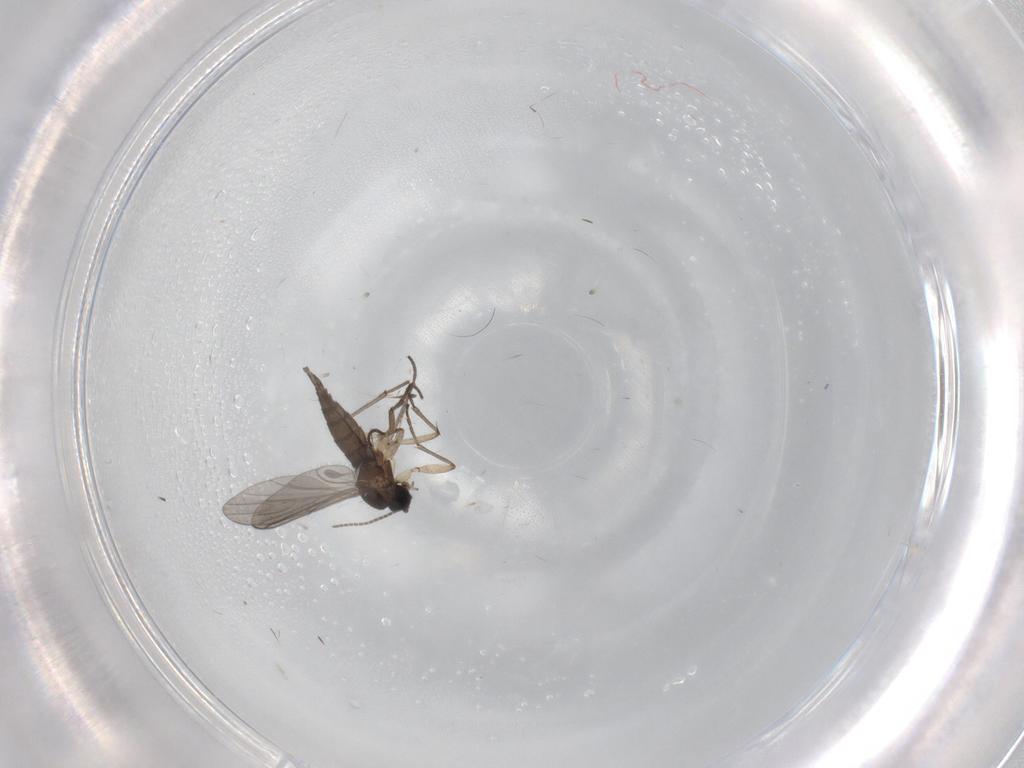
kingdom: Animalia
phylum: Arthropoda
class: Insecta
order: Diptera
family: Sciaridae
